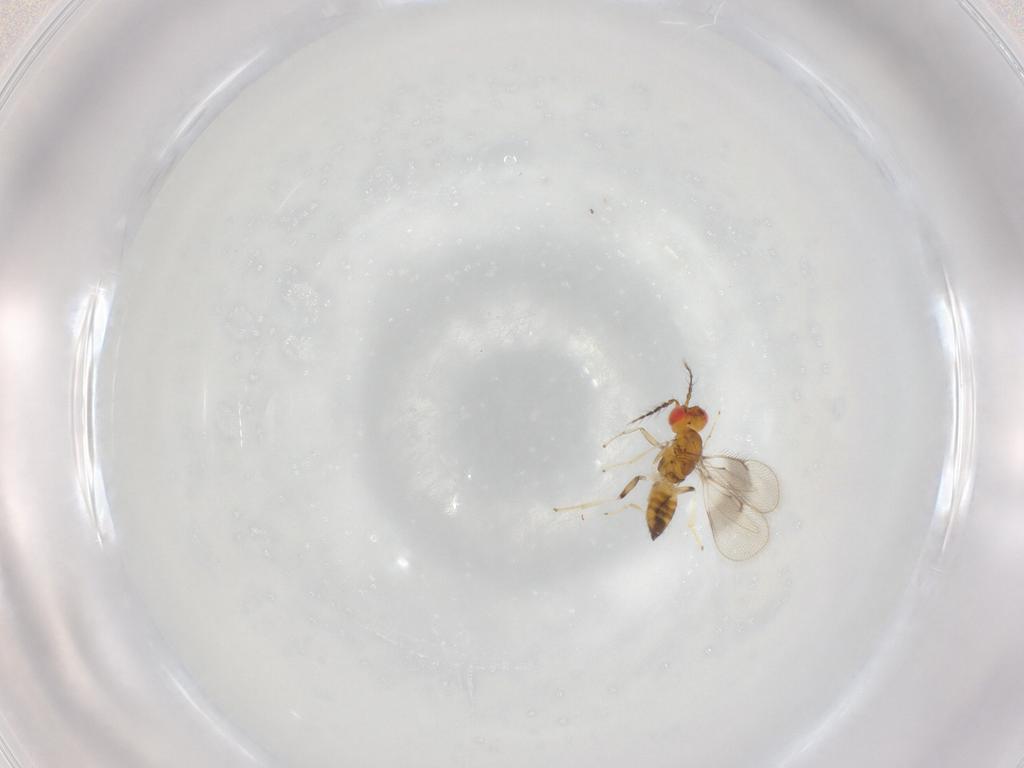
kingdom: Animalia
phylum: Arthropoda
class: Insecta
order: Hymenoptera
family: Eulophidae
